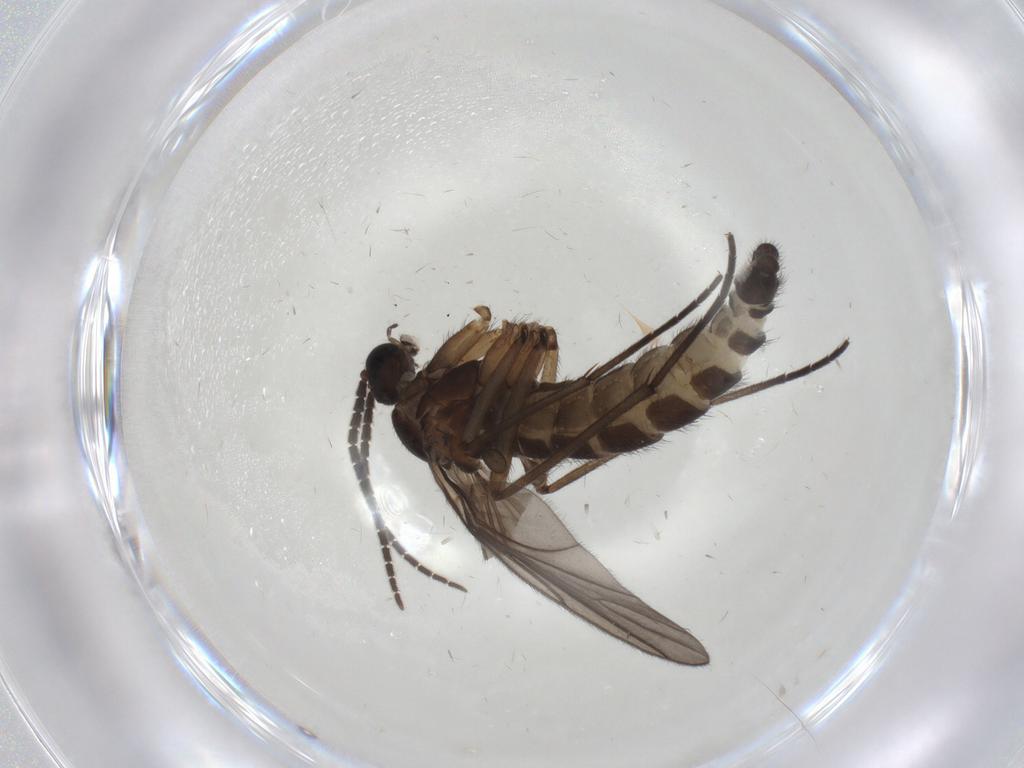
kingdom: Animalia
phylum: Arthropoda
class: Insecta
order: Diptera
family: Sciaridae
